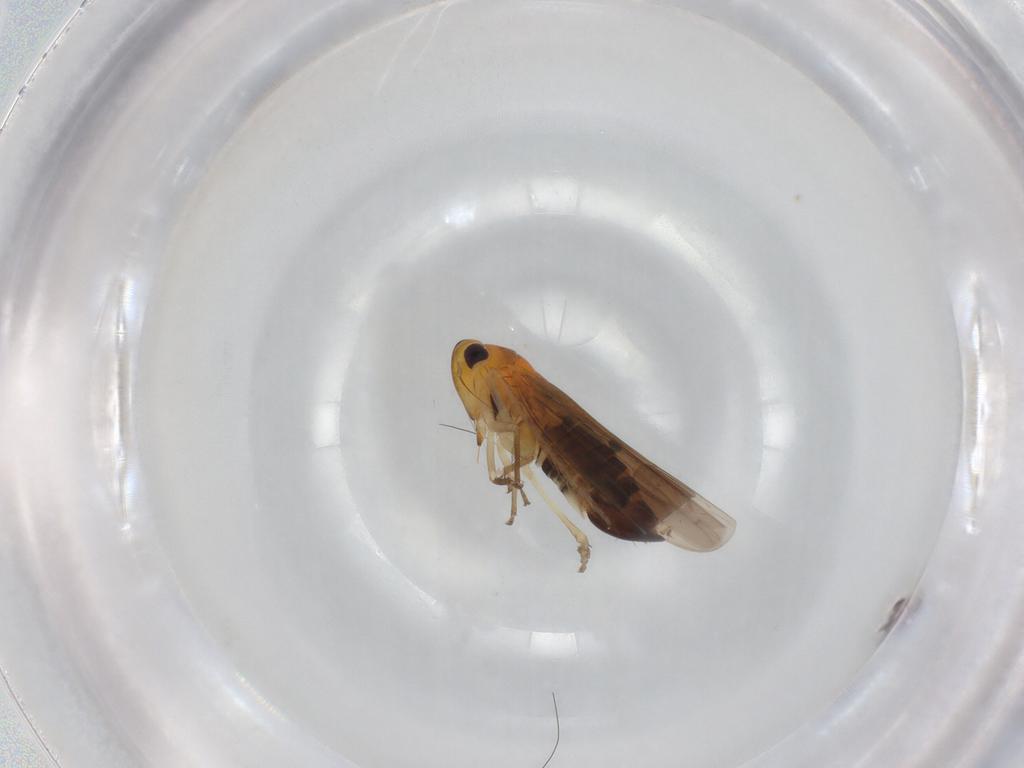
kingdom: Animalia
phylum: Arthropoda
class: Insecta
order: Hemiptera
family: Cicadellidae
